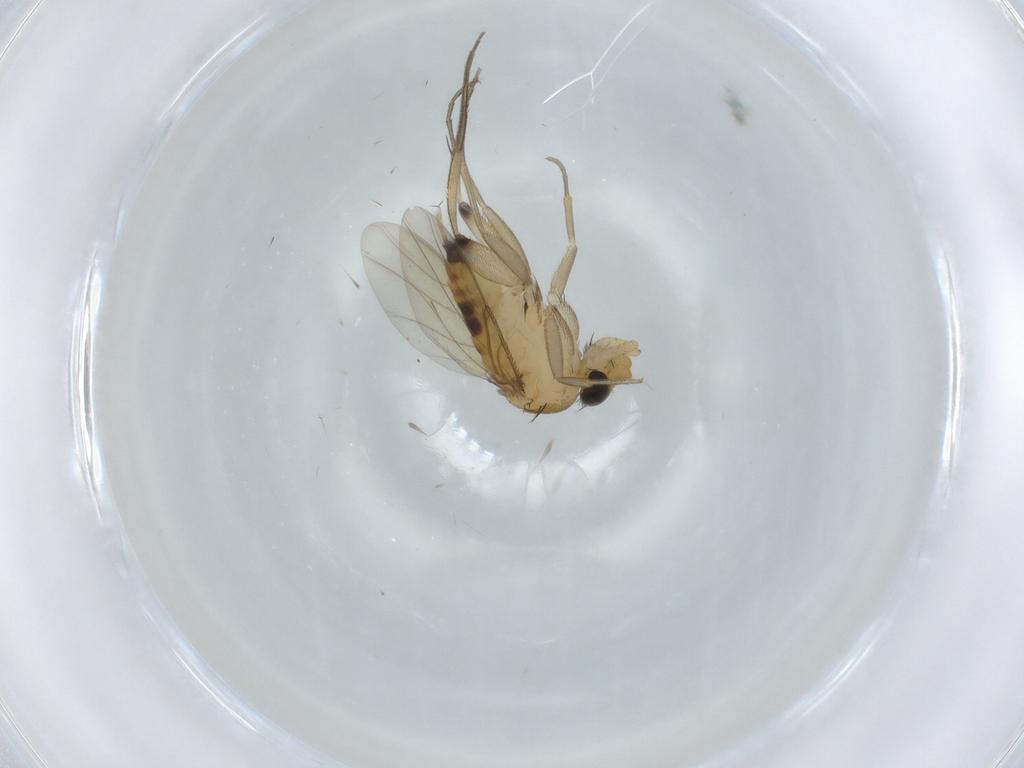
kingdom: Animalia
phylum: Arthropoda
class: Insecta
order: Diptera
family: Phoridae
